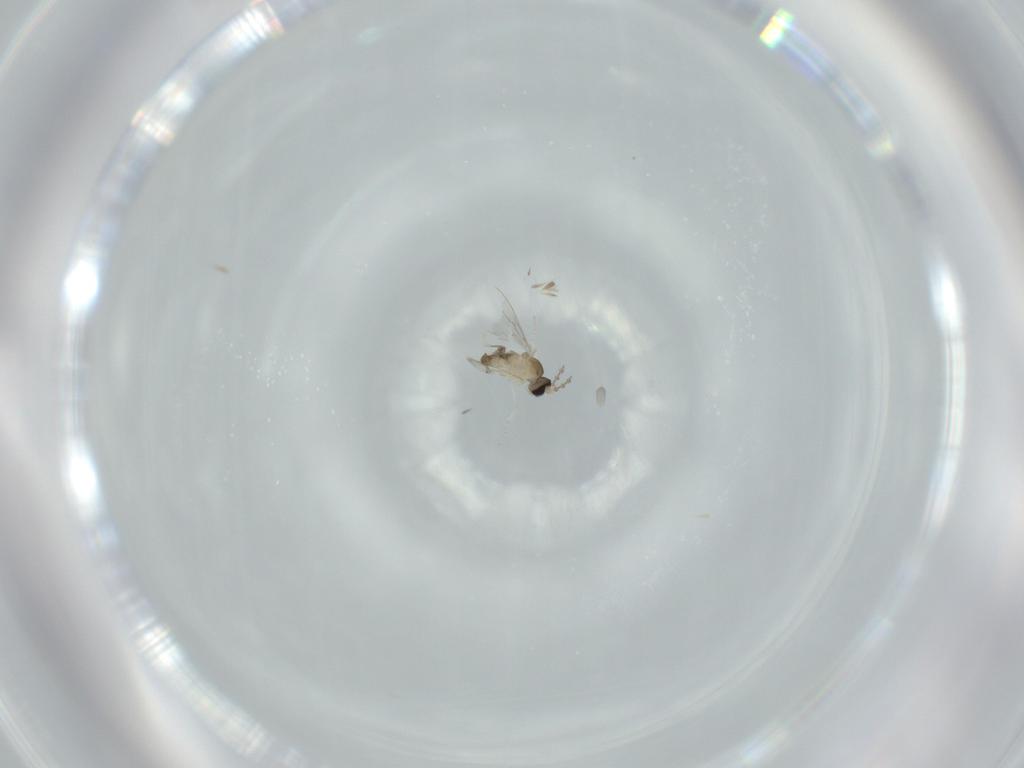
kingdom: Animalia
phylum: Arthropoda
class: Insecta
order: Diptera
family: Cecidomyiidae
